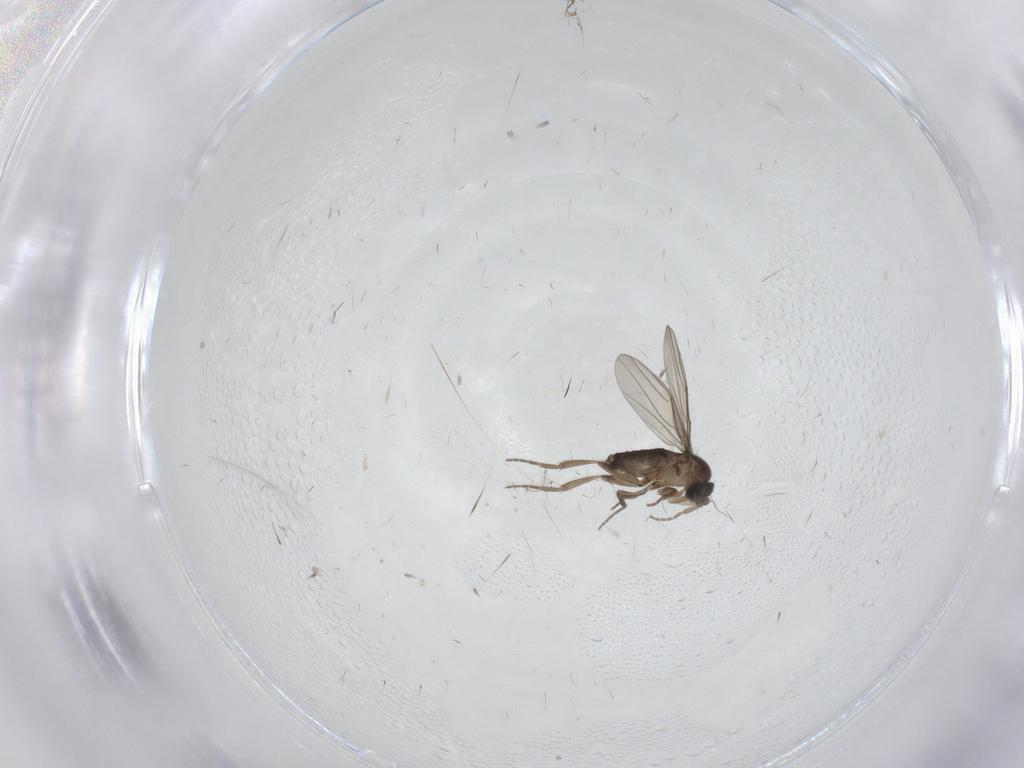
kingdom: Animalia
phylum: Arthropoda
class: Insecta
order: Diptera
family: Phoridae
